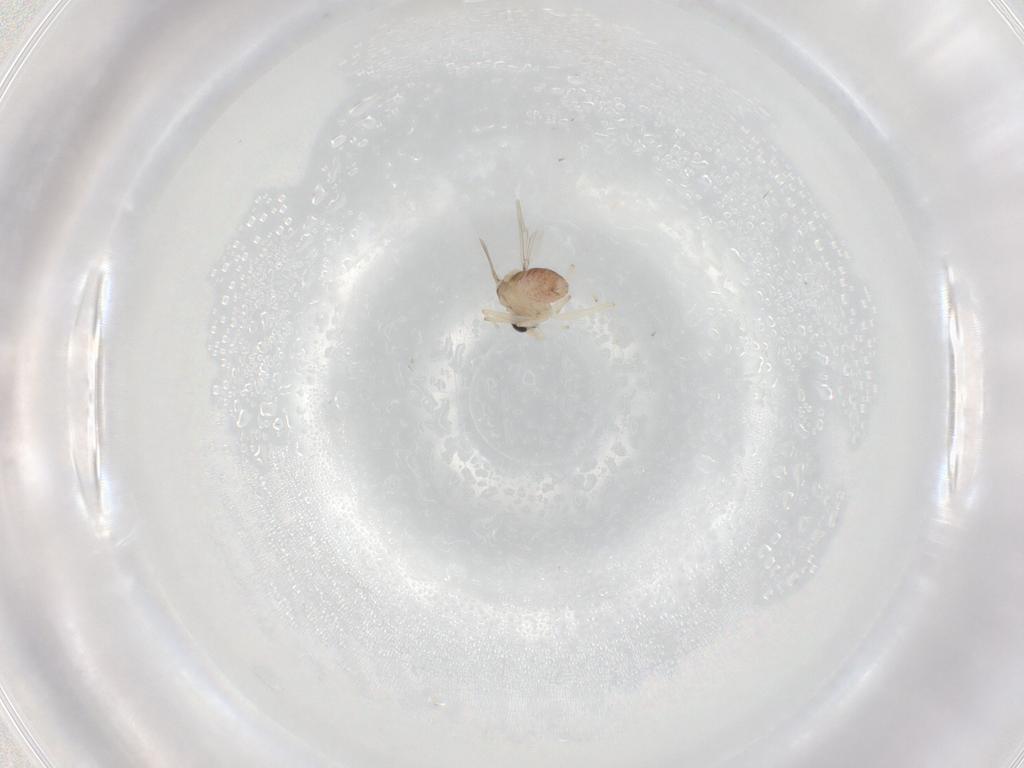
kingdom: Animalia
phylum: Arthropoda
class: Insecta
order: Diptera
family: Chironomidae
